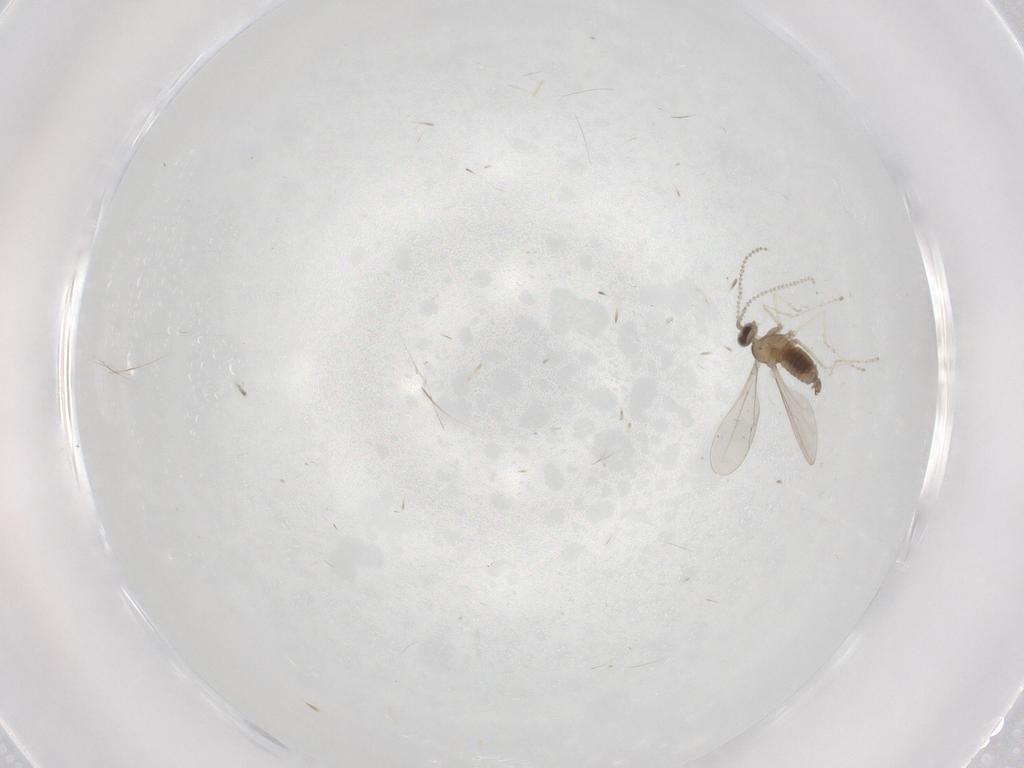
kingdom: Animalia
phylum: Arthropoda
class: Insecta
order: Diptera
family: Cecidomyiidae
